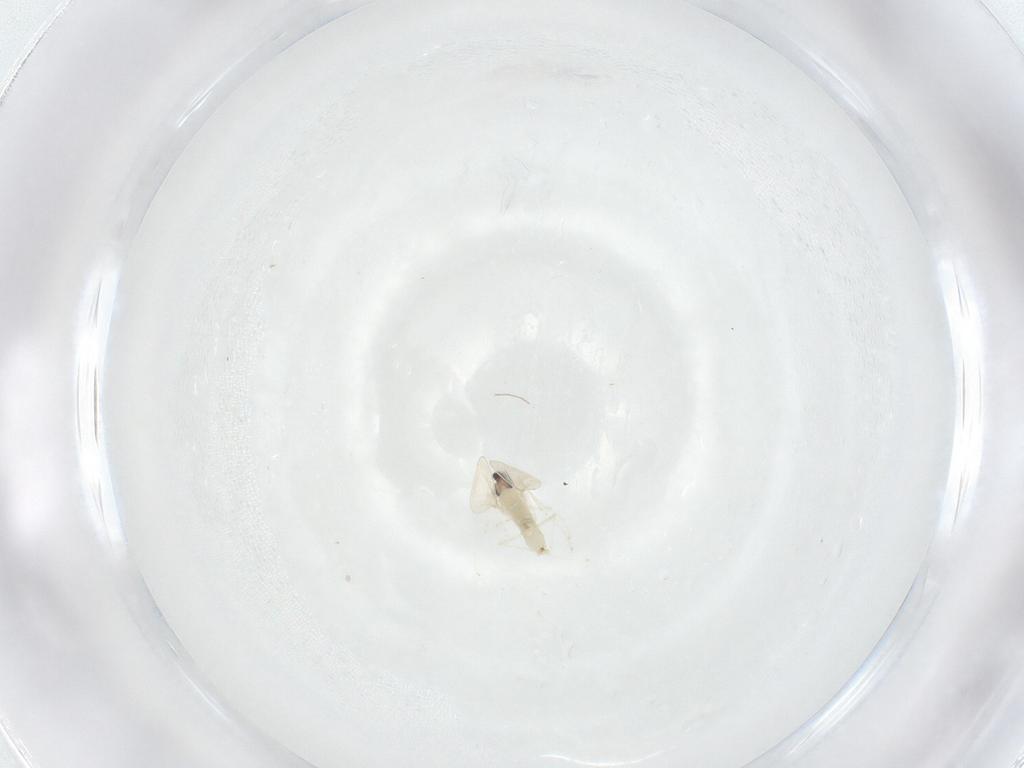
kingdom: Animalia
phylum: Arthropoda
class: Insecta
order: Diptera
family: Cecidomyiidae
